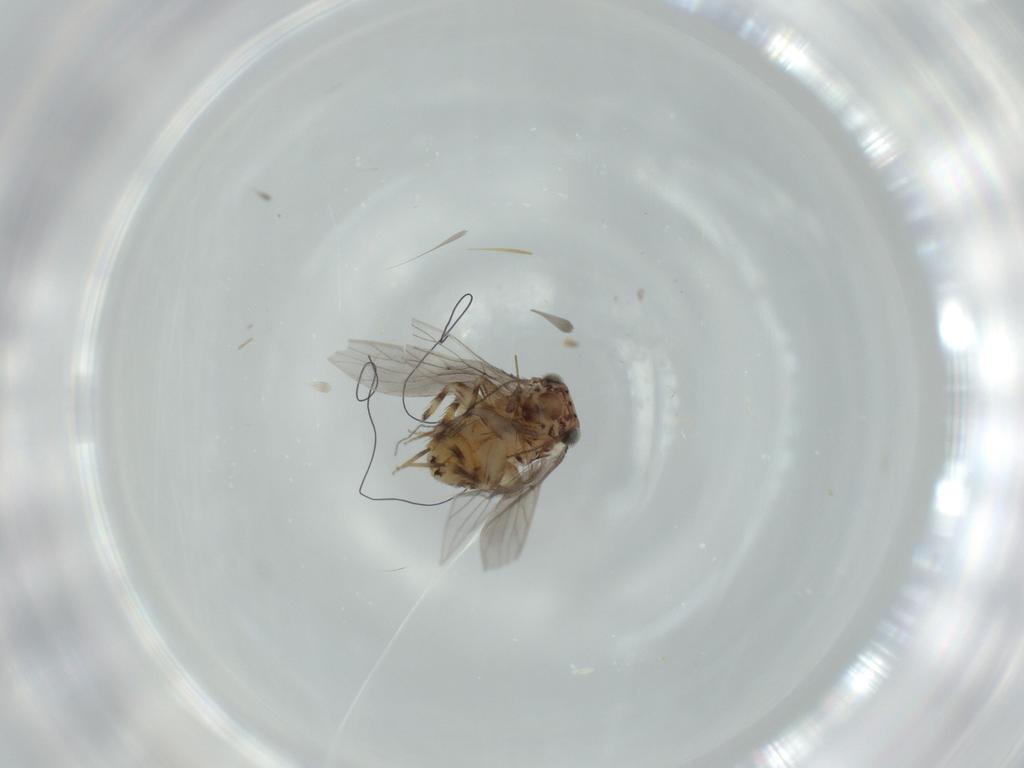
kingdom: Animalia
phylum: Arthropoda
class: Insecta
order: Psocodea
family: Lepidopsocidae
